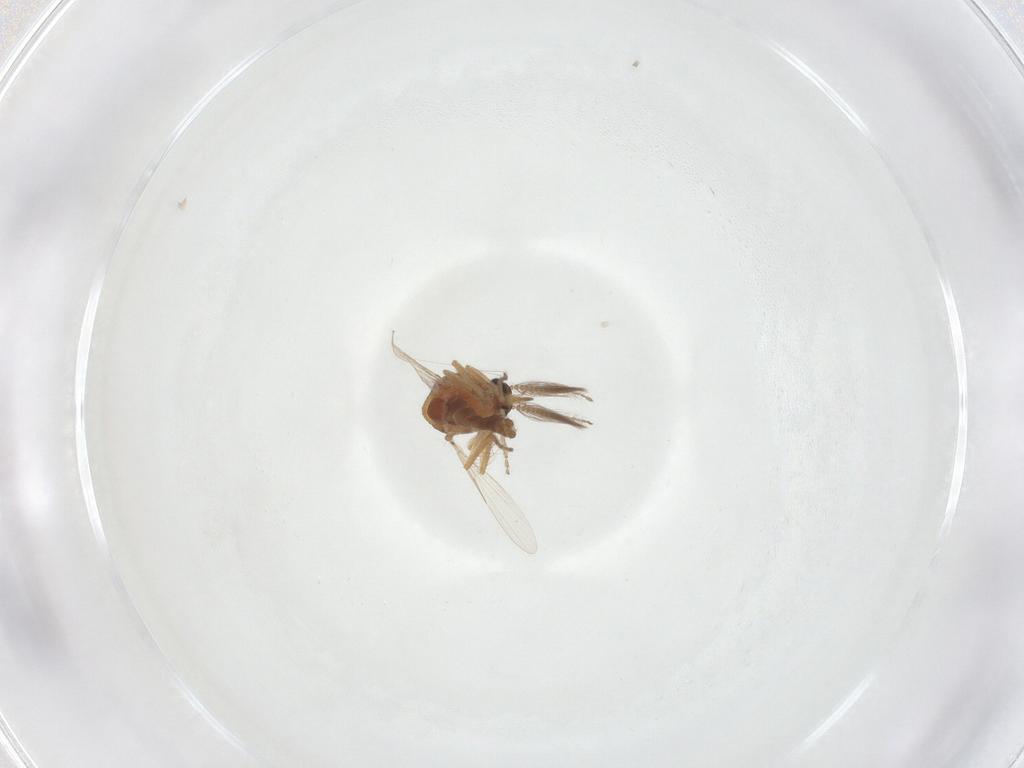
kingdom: Animalia
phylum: Arthropoda
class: Insecta
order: Diptera
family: Ceratopogonidae
